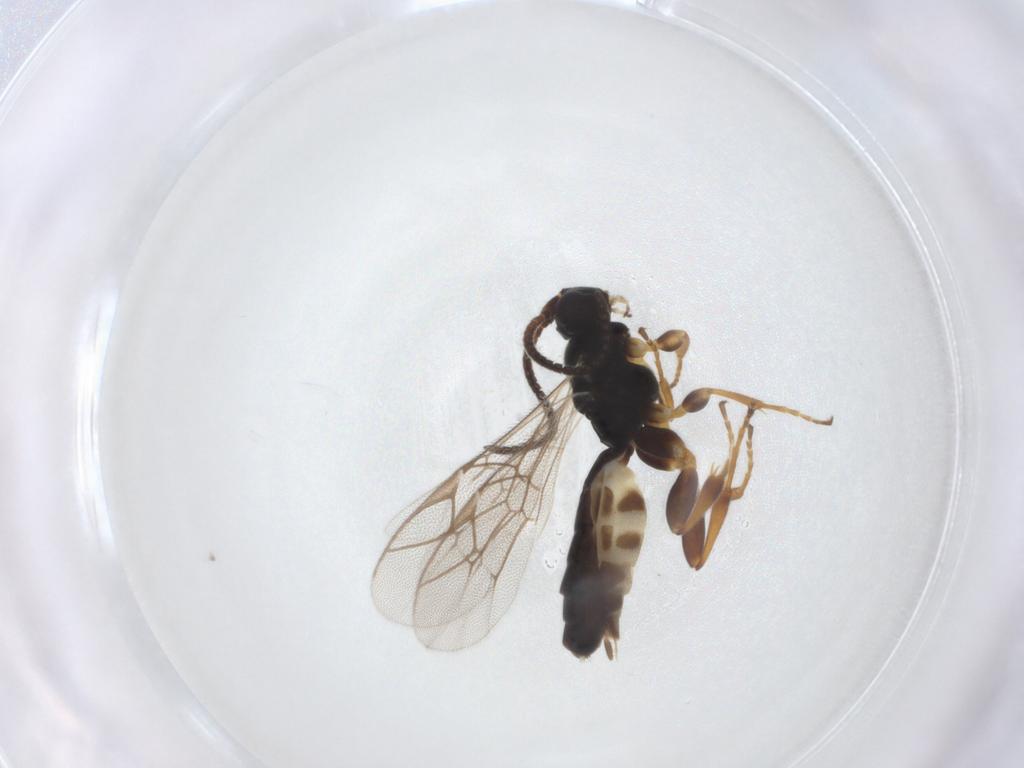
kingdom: Animalia
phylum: Arthropoda
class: Insecta
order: Hymenoptera
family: Ichneumonidae
